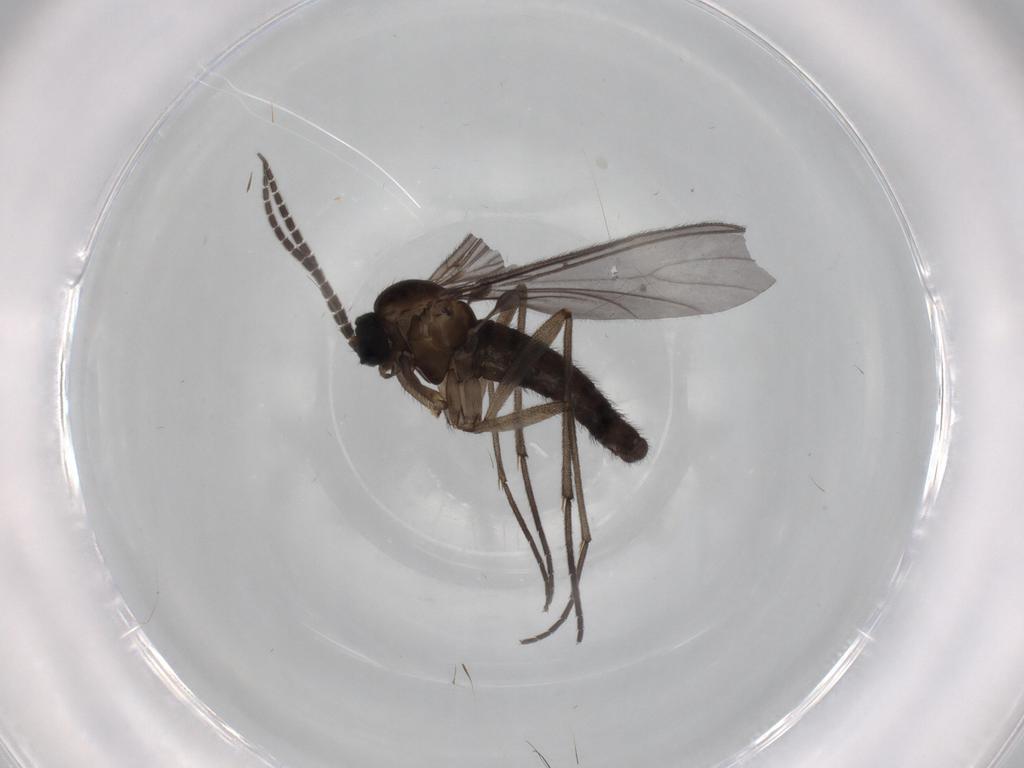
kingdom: Animalia
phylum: Arthropoda
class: Insecta
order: Diptera
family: Sciaridae
